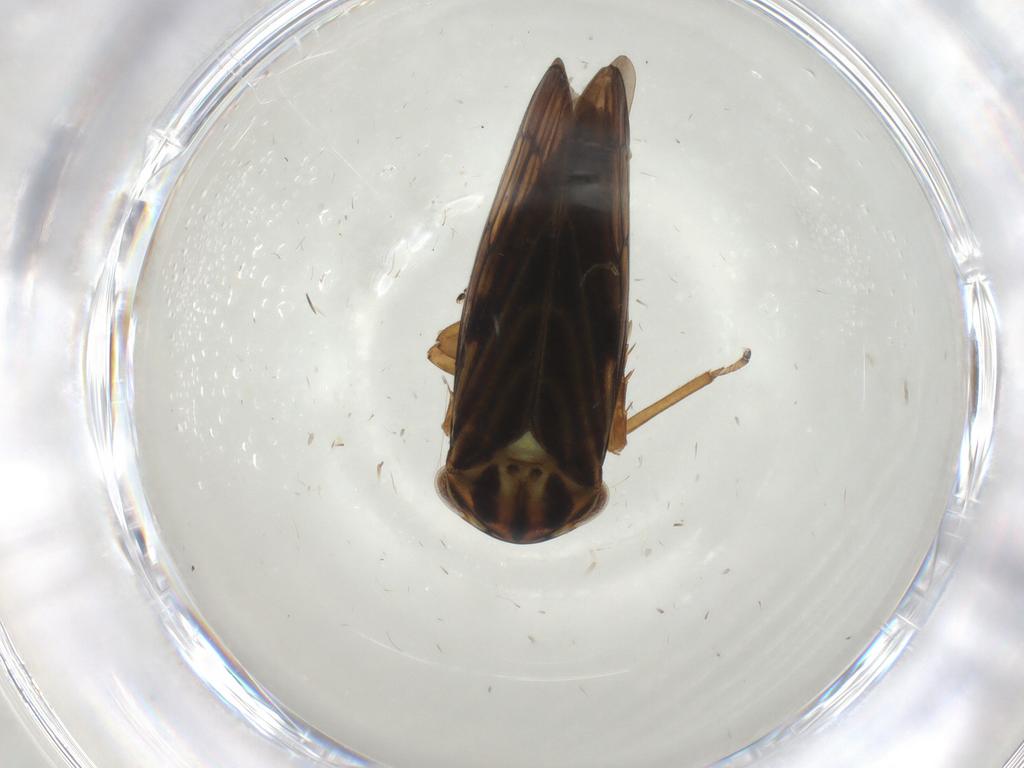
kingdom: Animalia
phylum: Arthropoda
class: Insecta
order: Hemiptera
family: Cicadellidae
